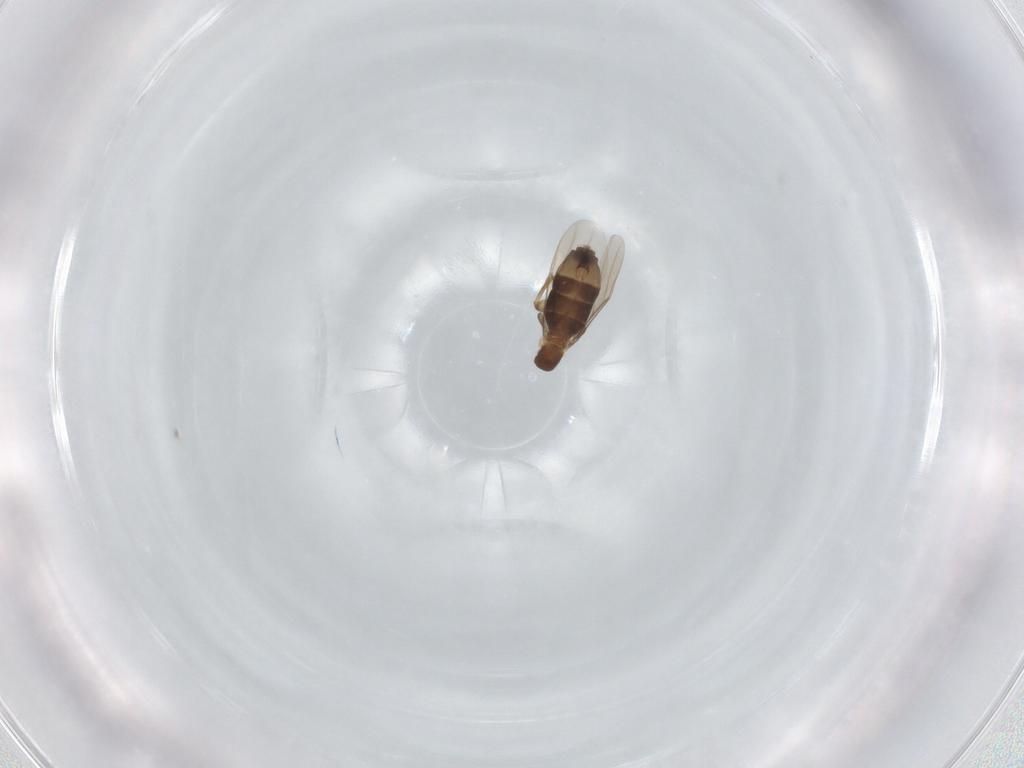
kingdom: Animalia
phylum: Arthropoda
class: Insecta
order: Diptera
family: Phoridae
